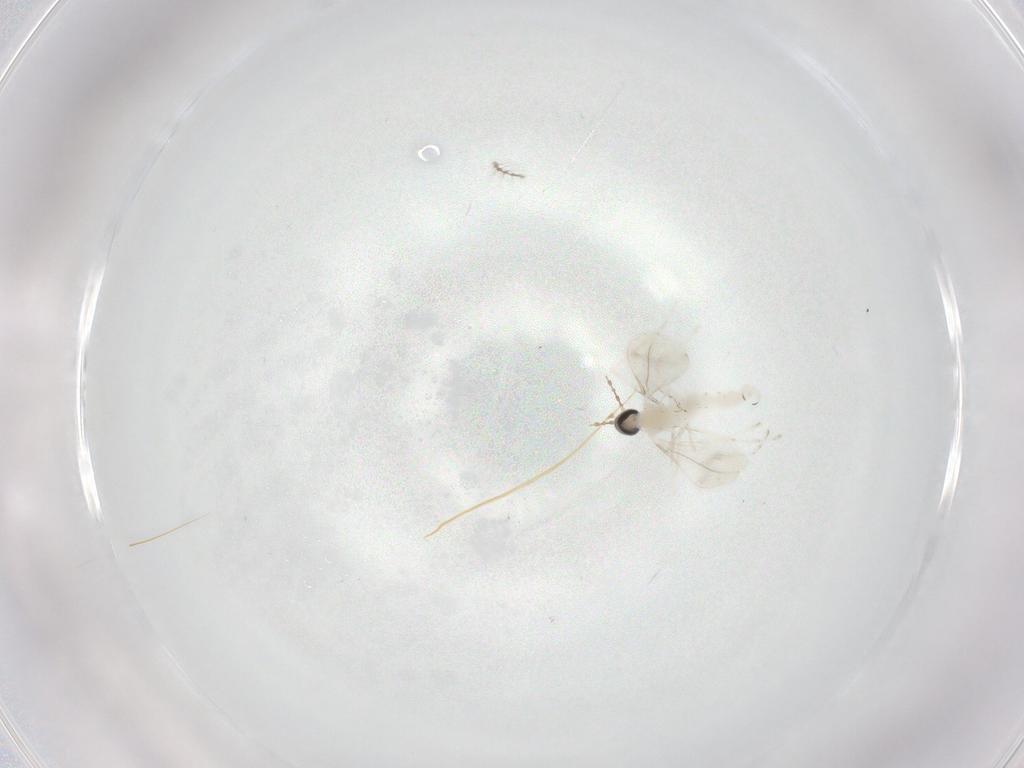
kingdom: Animalia
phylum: Arthropoda
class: Insecta
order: Diptera
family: Cecidomyiidae
